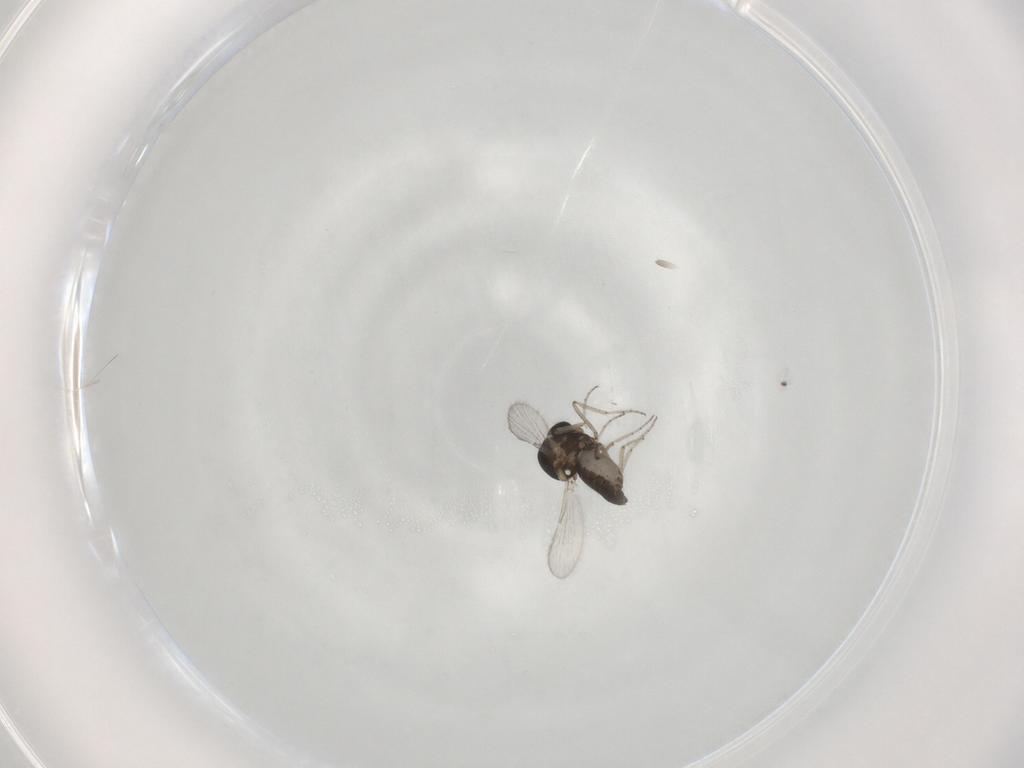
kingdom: Animalia
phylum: Arthropoda
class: Insecta
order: Diptera
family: Ceratopogonidae
